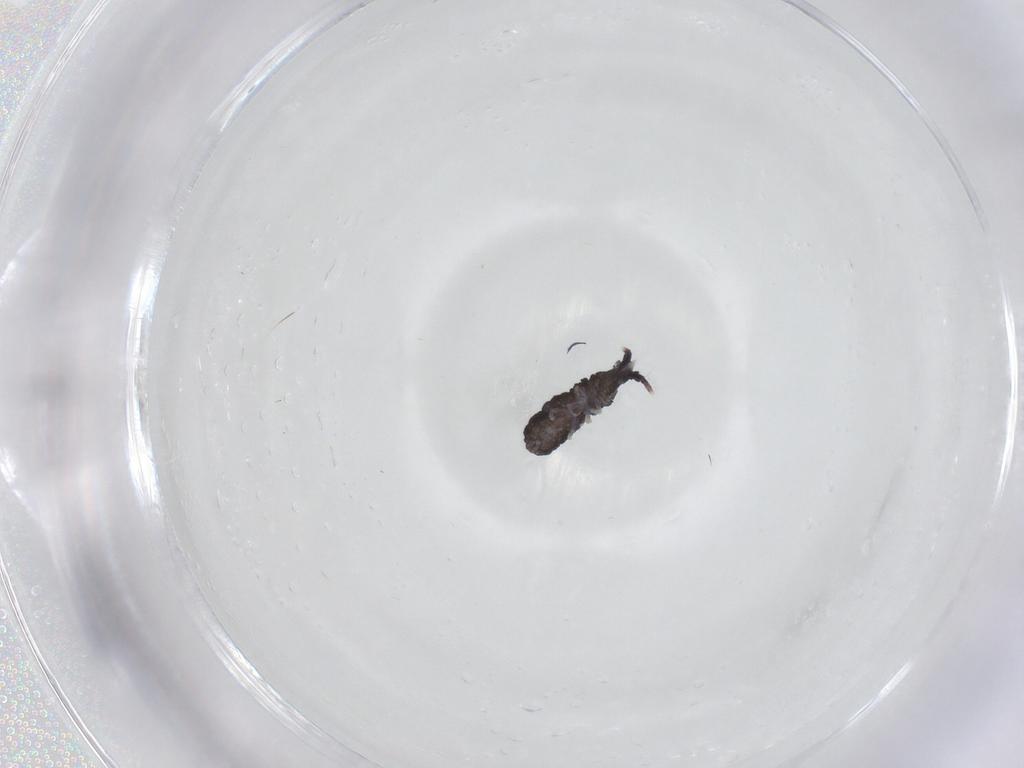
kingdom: Animalia
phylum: Arthropoda
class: Collembola
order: Poduromorpha
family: Neanuridae
